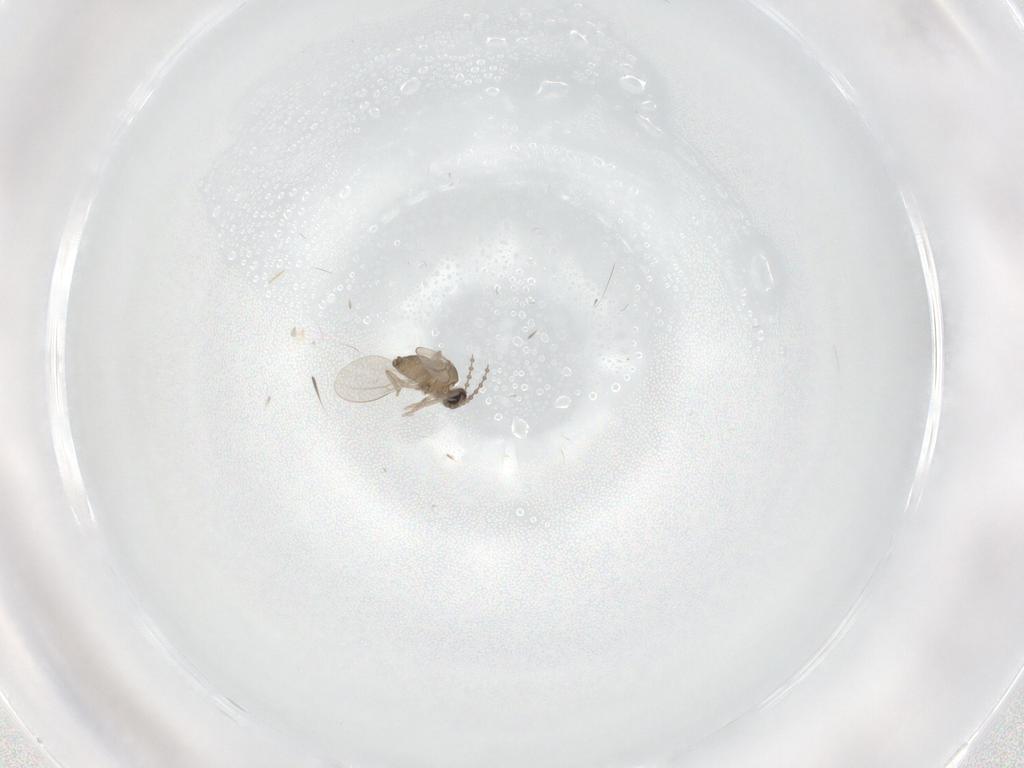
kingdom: Animalia
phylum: Arthropoda
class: Insecta
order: Diptera
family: Cecidomyiidae
